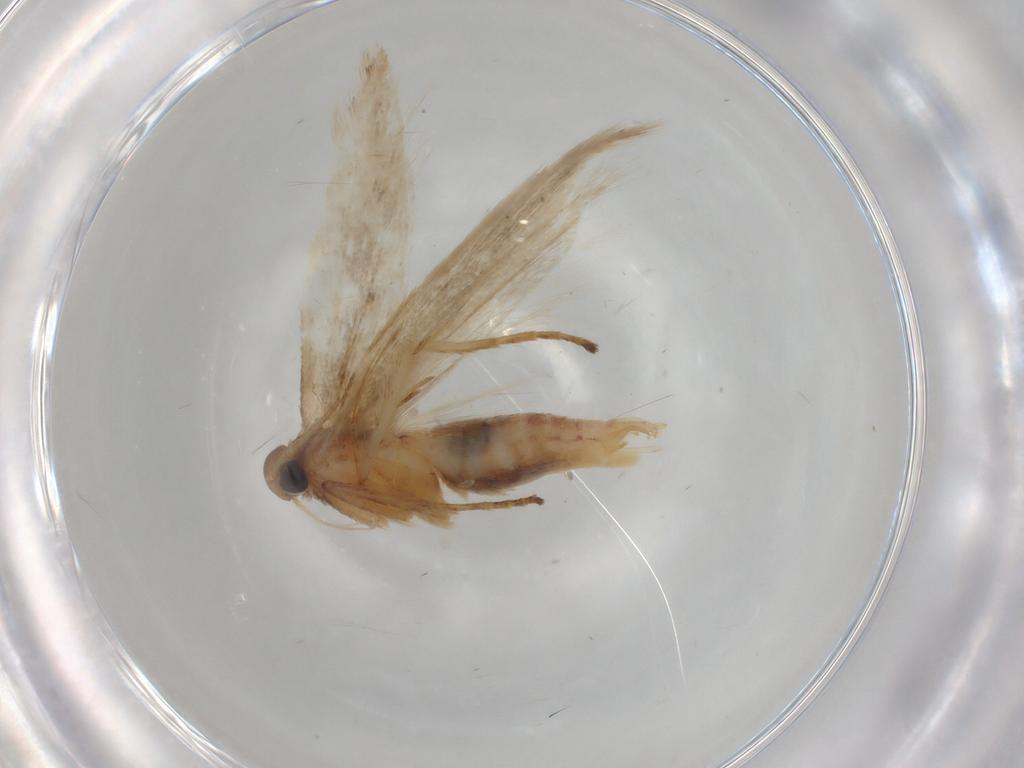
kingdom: Animalia
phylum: Arthropoda
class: Insecta
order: Lepidoptera
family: Gelechiidae
